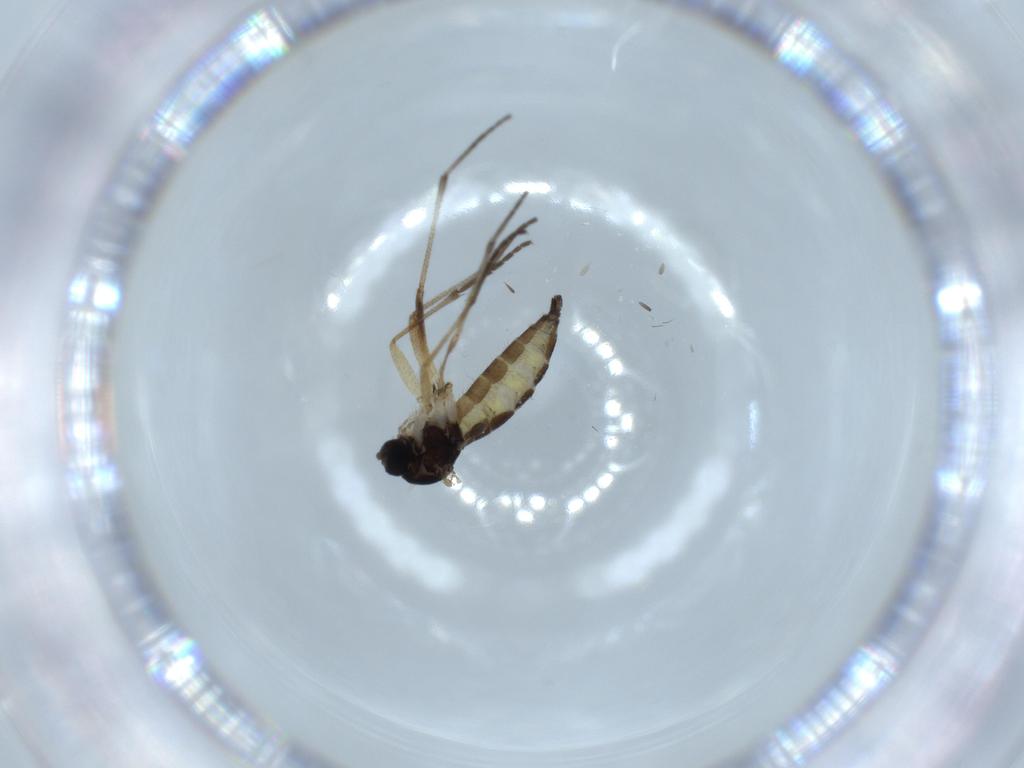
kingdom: Animalia
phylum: Arthropoda
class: Insecta
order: Diptera
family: Sciaridae
